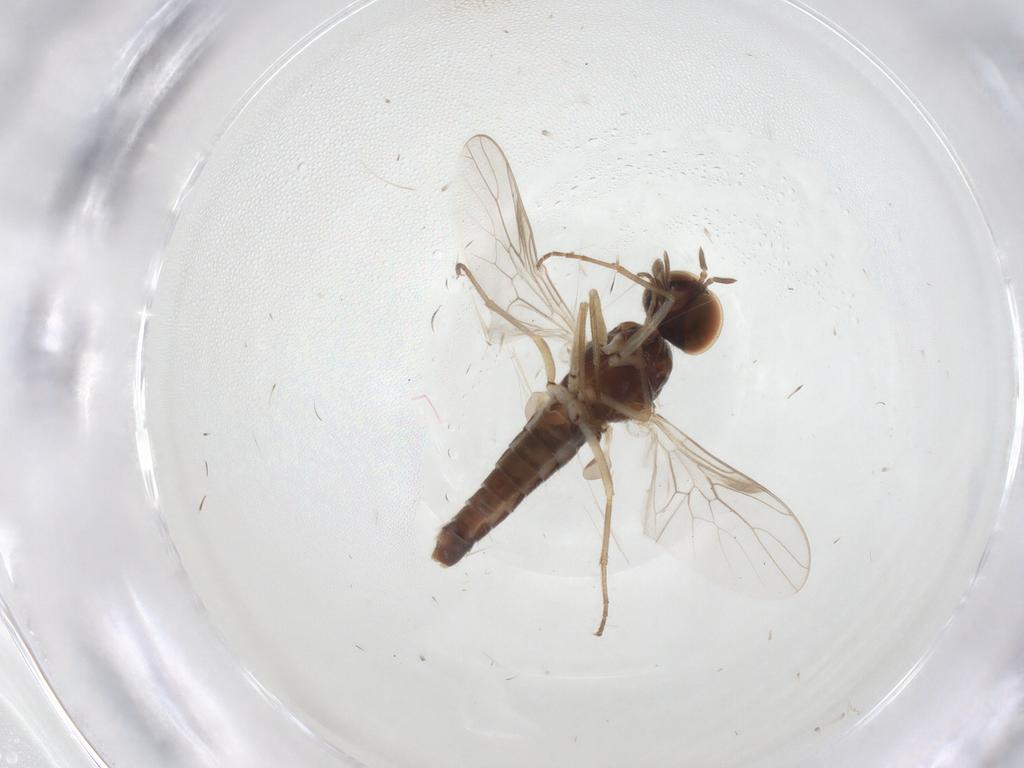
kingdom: Animalia
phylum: Arthropoda
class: Insecta
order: Diptera
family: Scenopinidae
